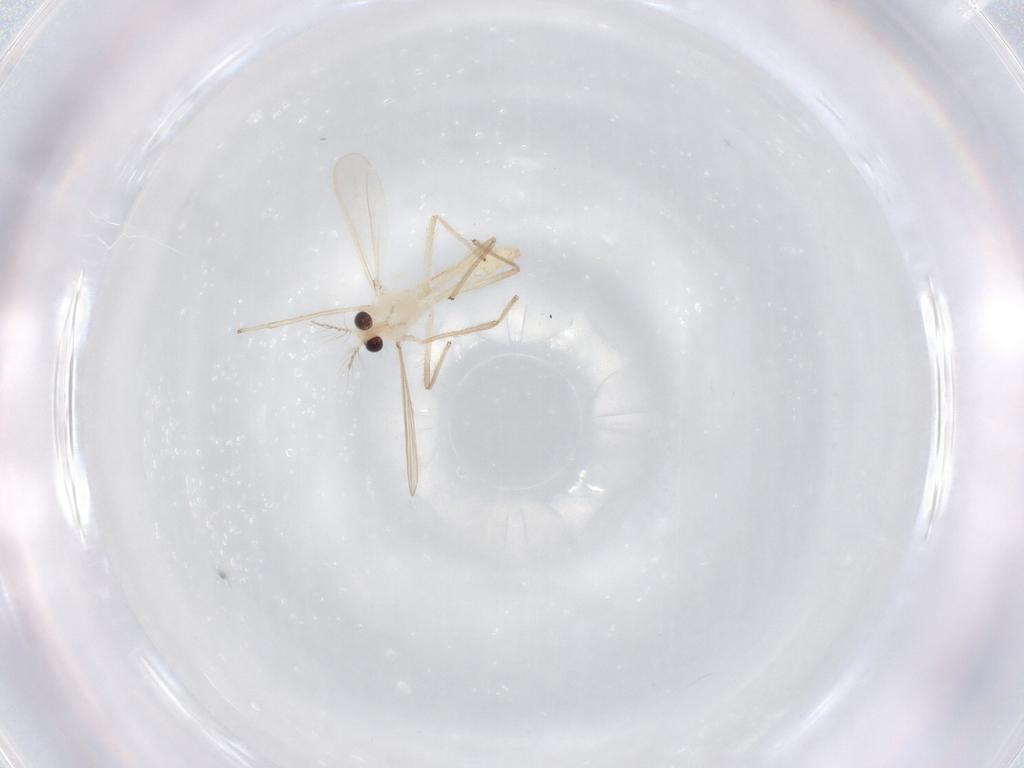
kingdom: Animalia
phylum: Arthropoda
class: Insecta
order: Diptera
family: Chironomidae
